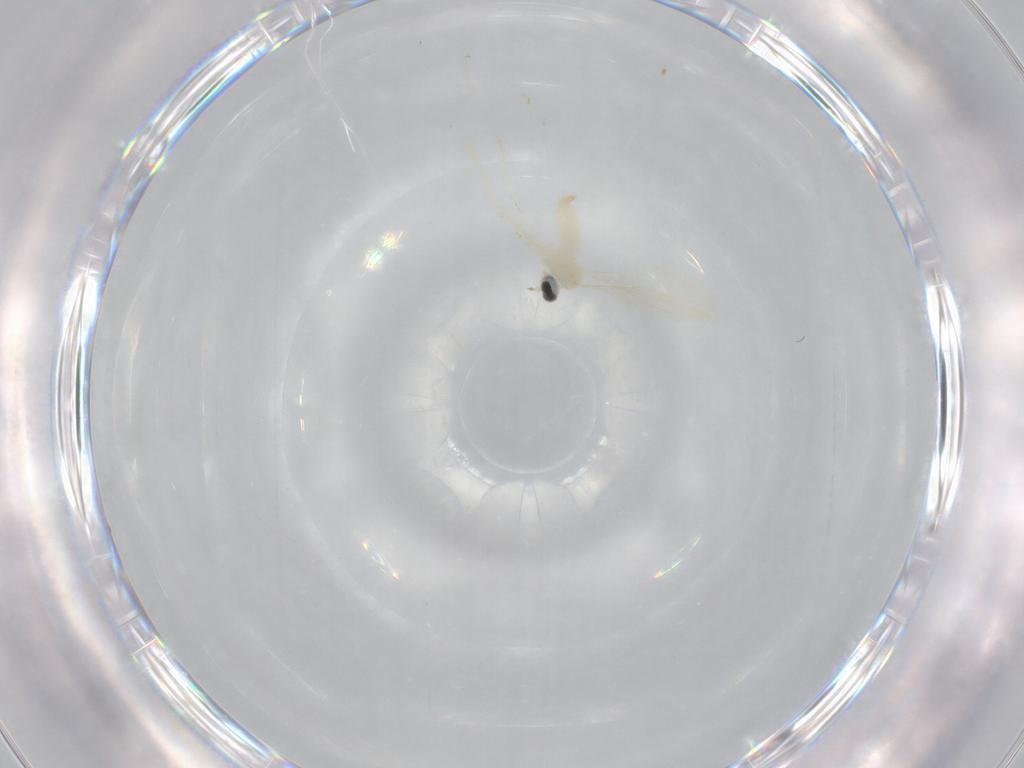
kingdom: Animalia
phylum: Arthropoda
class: Insecta
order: Diptera
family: Cecidomyiidae
